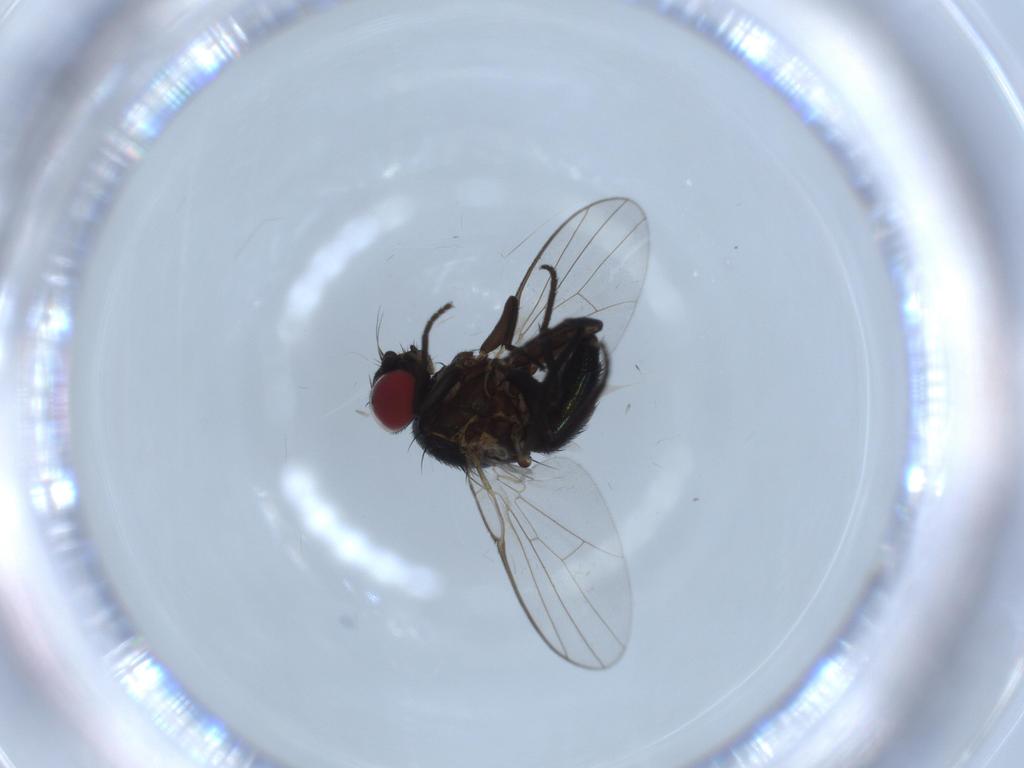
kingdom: Animalia
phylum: Arthropoda
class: Insecta
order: Diptera
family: Agromyzidae
